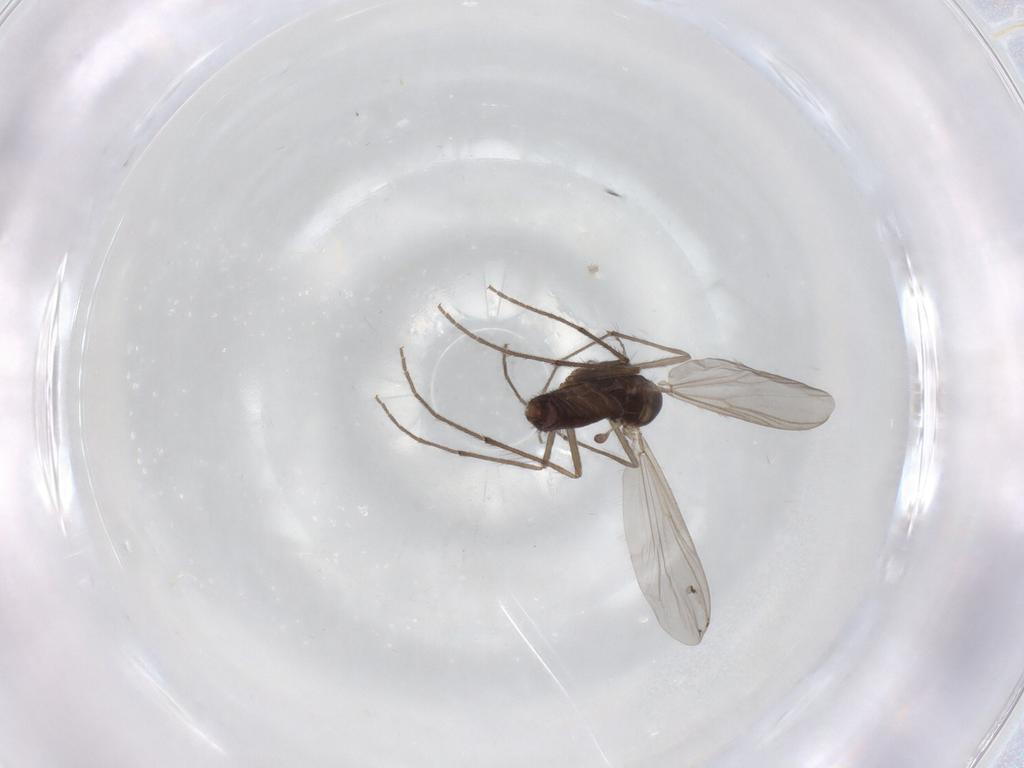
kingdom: Animalia
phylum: Arthropoda
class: Insecta
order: Diptera
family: Chironomidae
